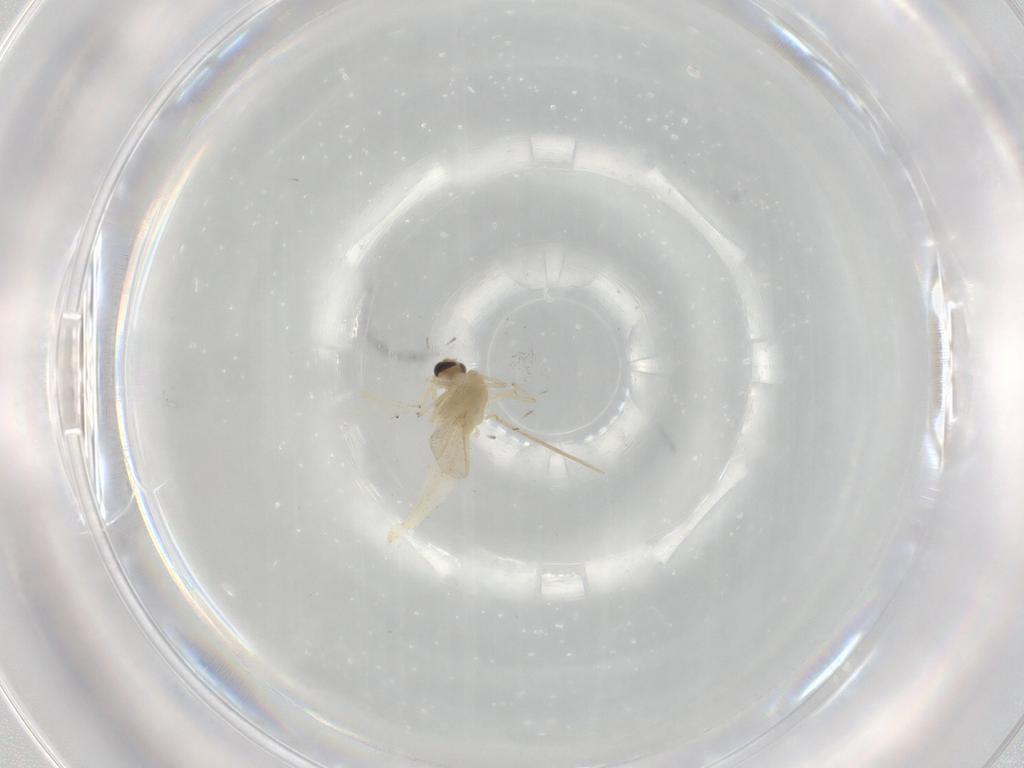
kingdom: Animalia
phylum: Arthropoda
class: Insecta
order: Diptera
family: Chironomidae
